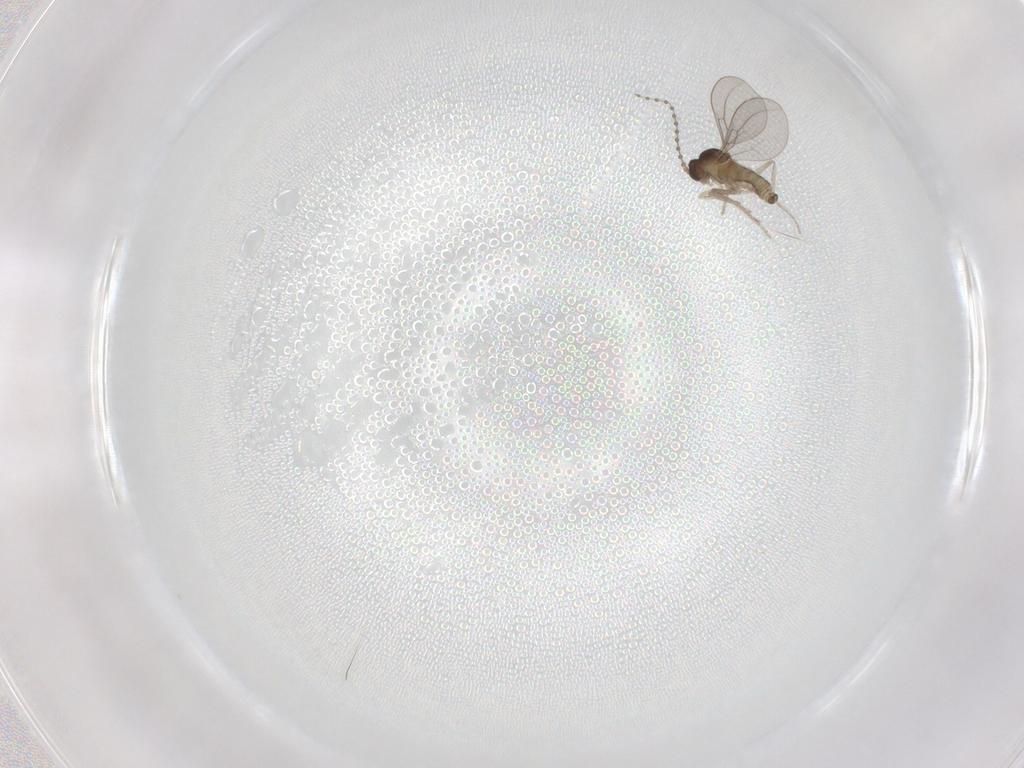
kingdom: Animalia
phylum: Arthropoda
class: Insecta
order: Diptera
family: Cecidomyiidae
